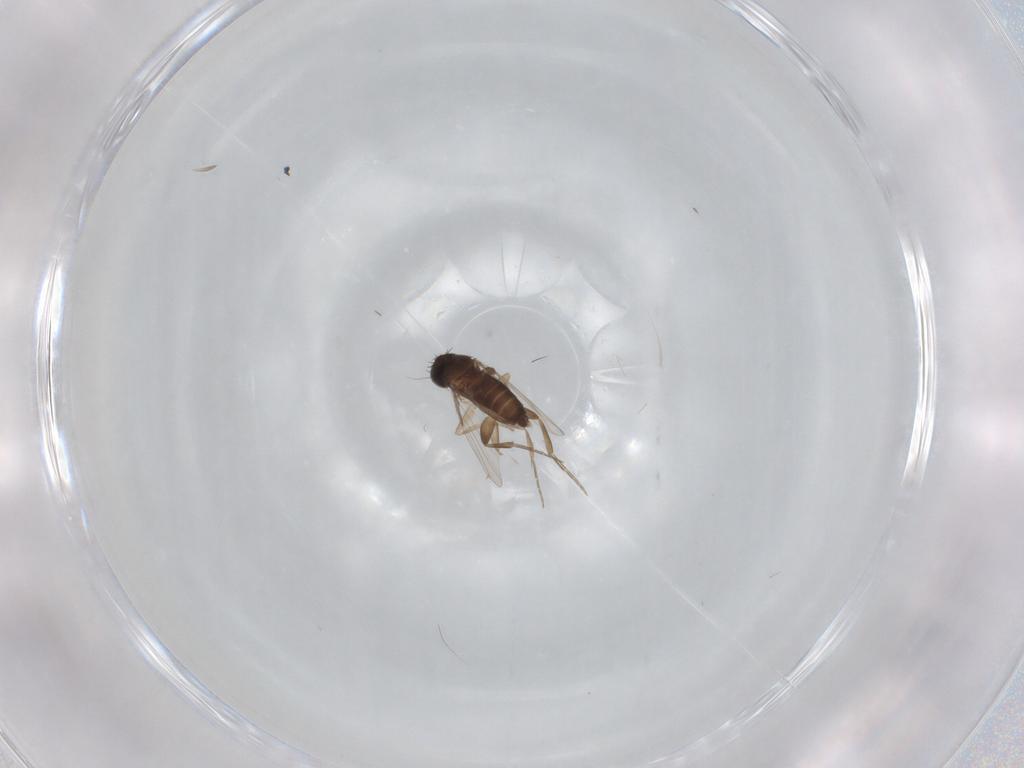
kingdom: Animalia
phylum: Arthropoda
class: Insecta
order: Diptera
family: Phoridae
